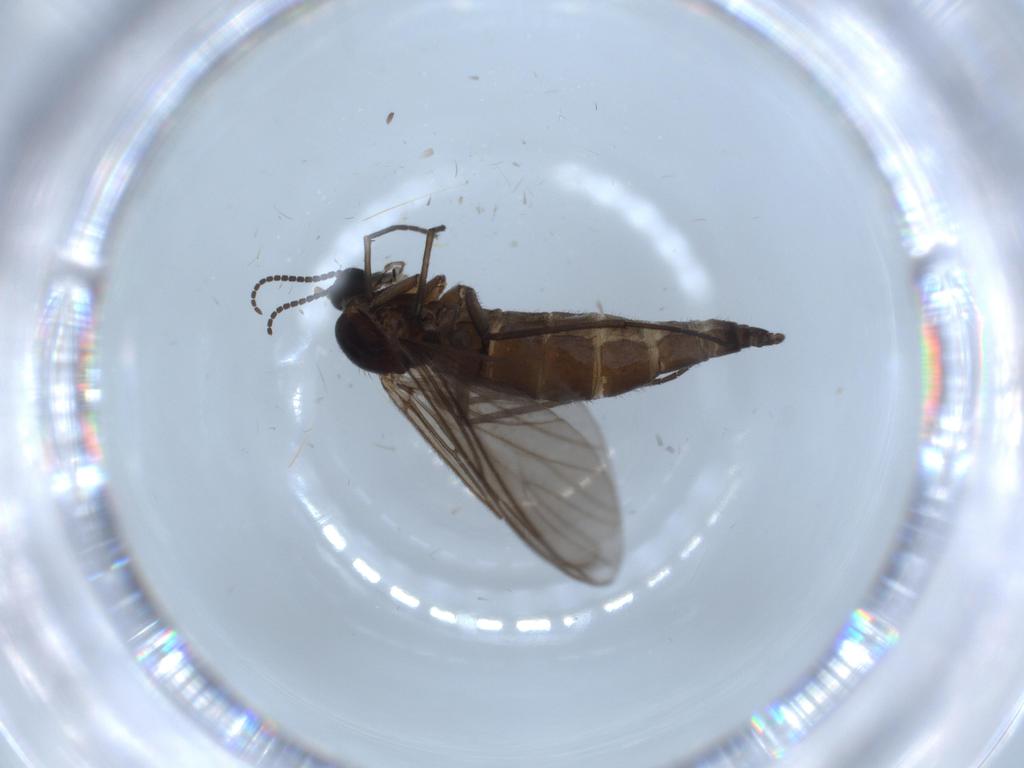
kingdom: Animalia
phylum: Arthropoda
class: Insecta
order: Diptera
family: Sciaridae
